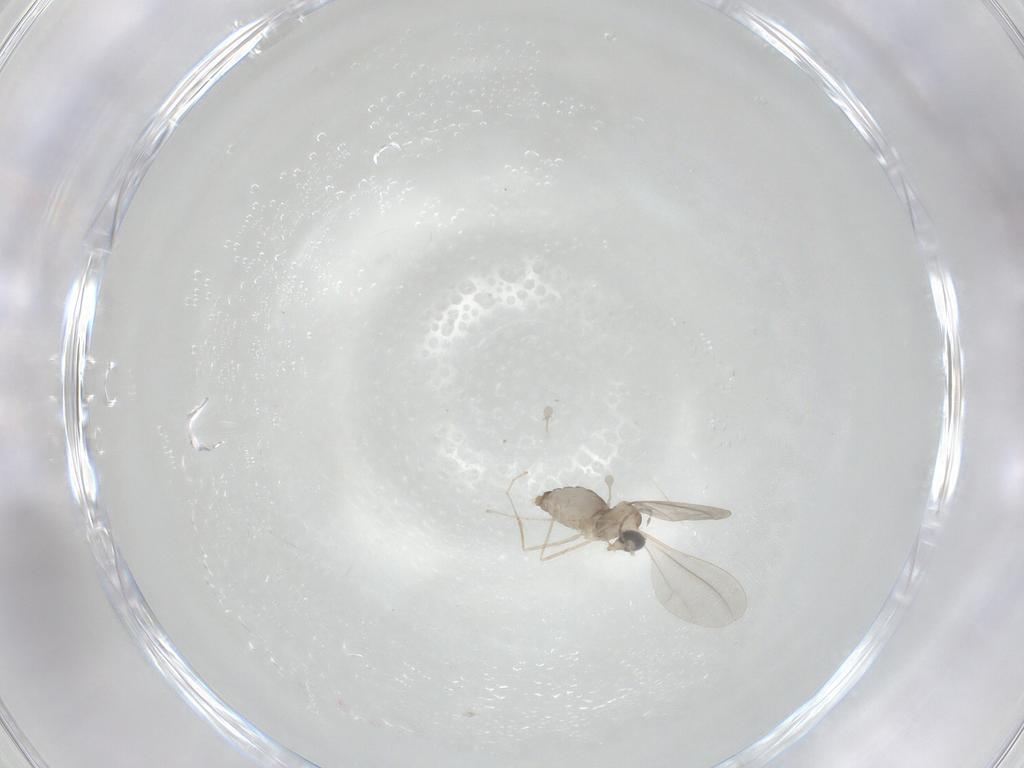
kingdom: Animalia
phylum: Arthropoda
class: Insecta
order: Diptera
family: Cecidomyiidae
